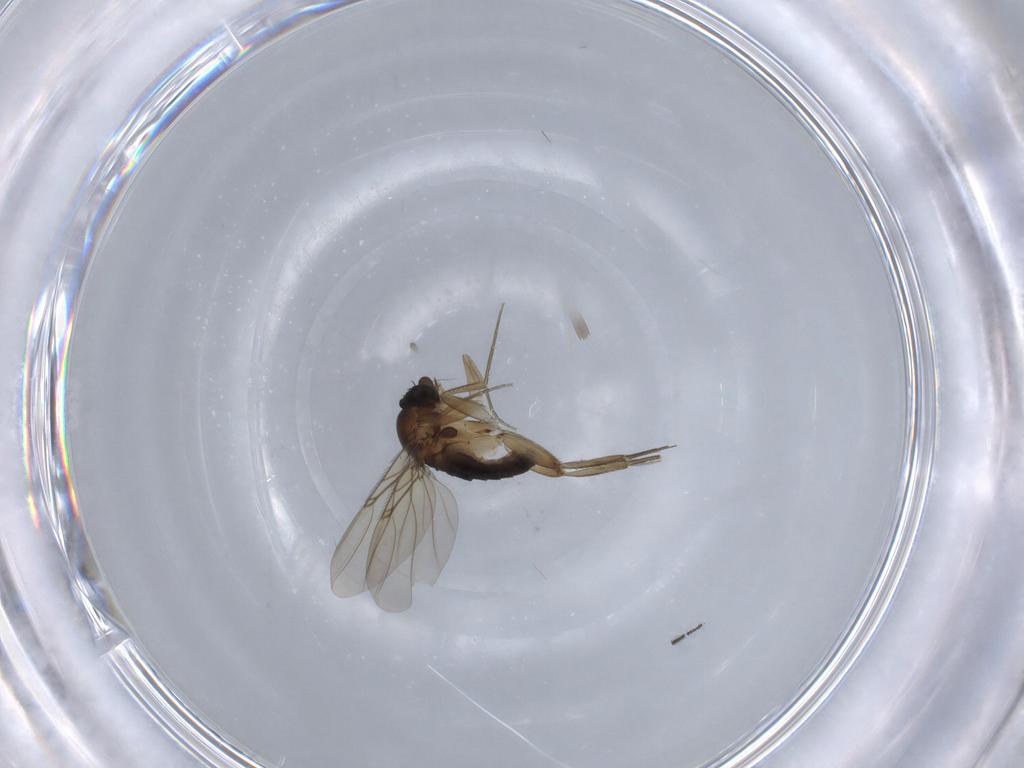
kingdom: Animalia
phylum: Arthropoda
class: Insecta
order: Diptera
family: Phoridae
